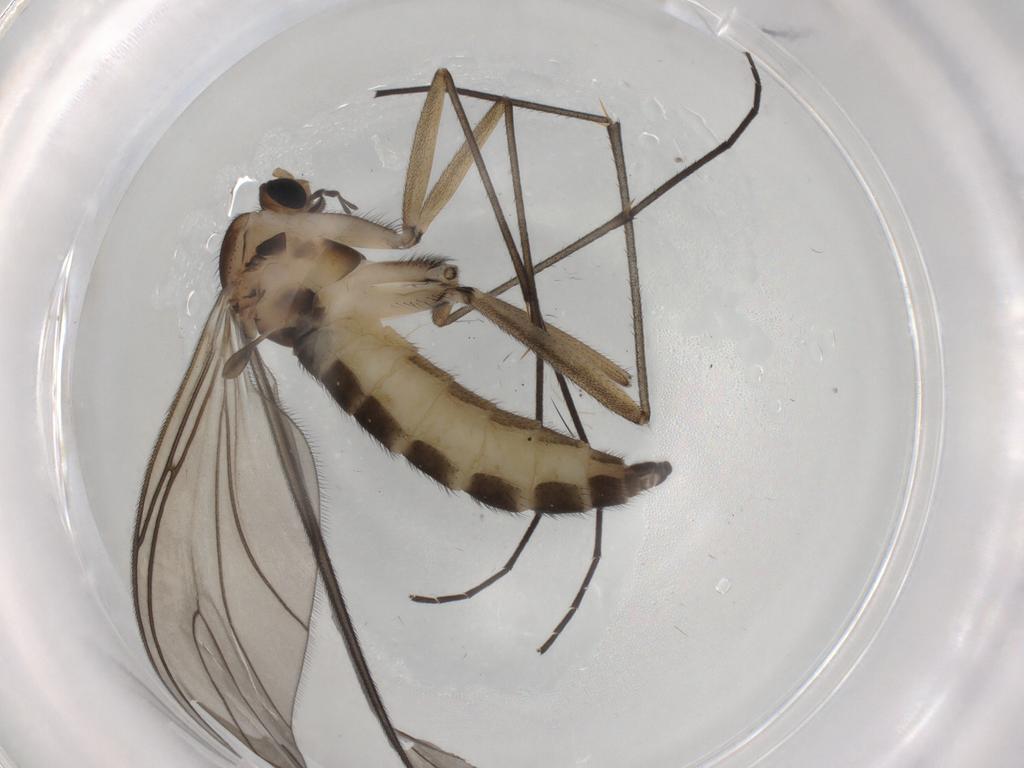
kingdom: Animalia
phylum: Arthropoda
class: Insecta
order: Diptera
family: Sciaridae
